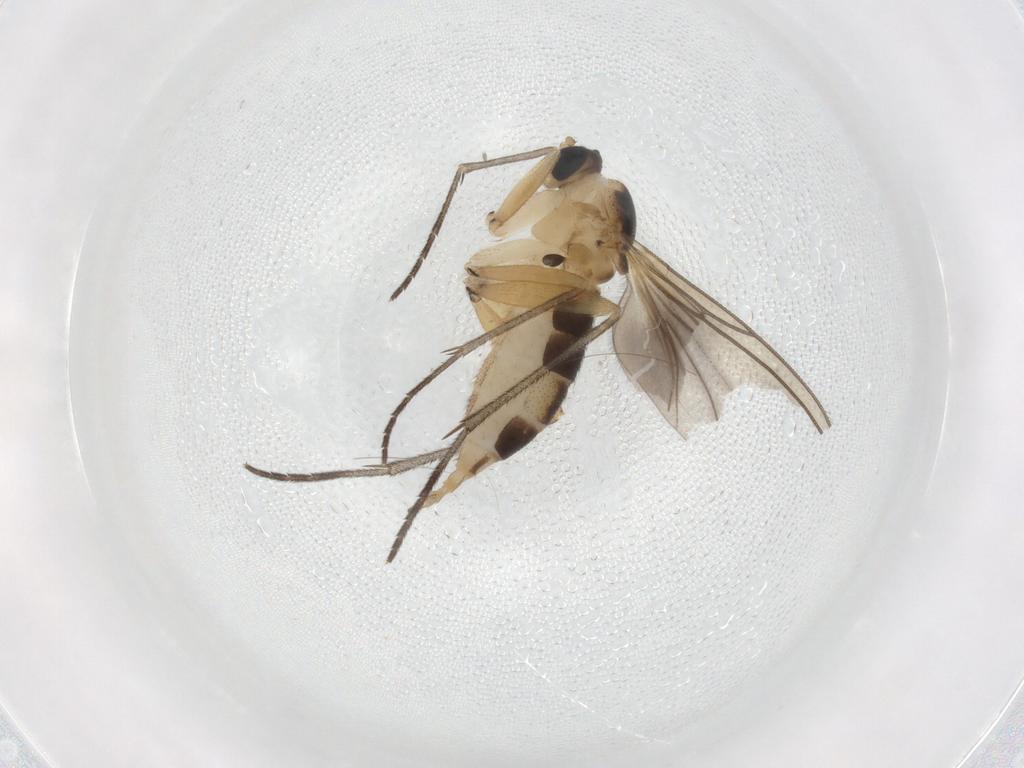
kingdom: Animalia
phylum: Arthropoda
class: Insecta
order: Diptera
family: Sciaridae
